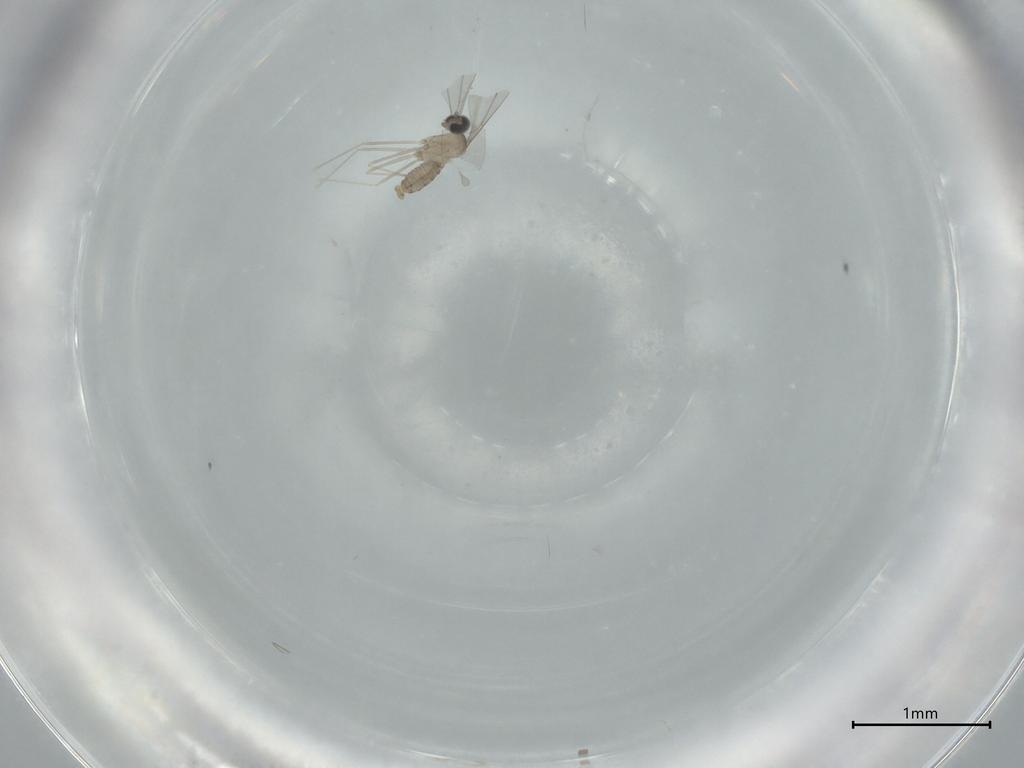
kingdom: Animalia
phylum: Arthropoda
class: Insecta
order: Diptera
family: Cecidomyiidae
